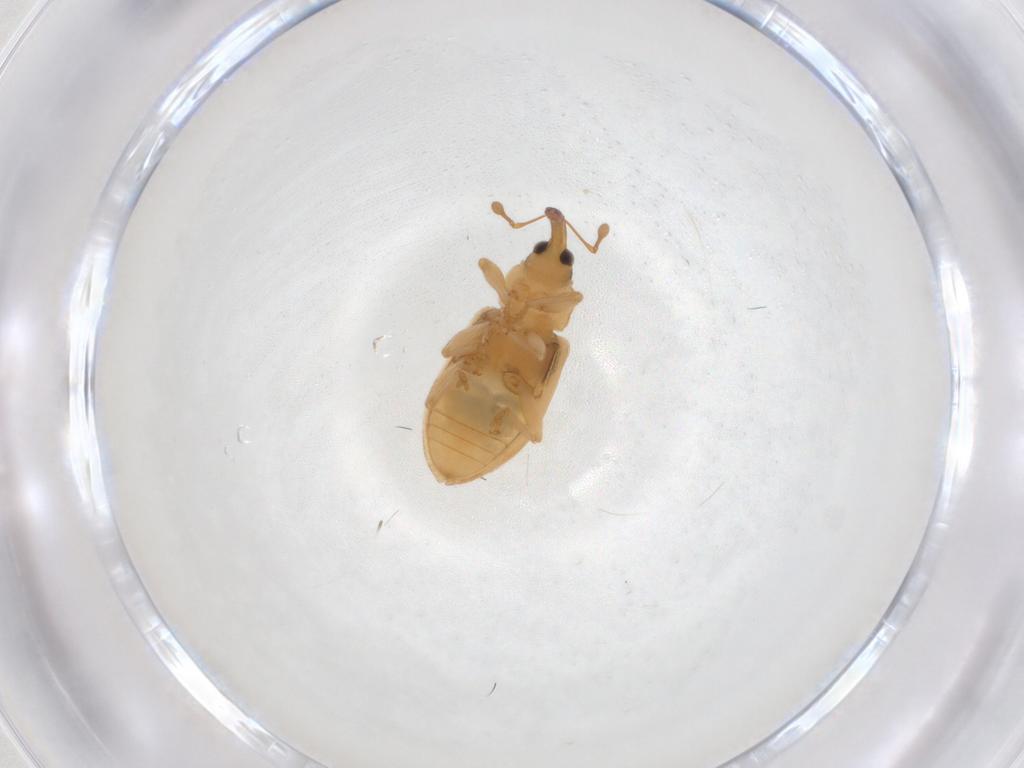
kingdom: Animalia
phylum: Arthropoda
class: Insecta
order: Coleoptera
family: Curculionidae
